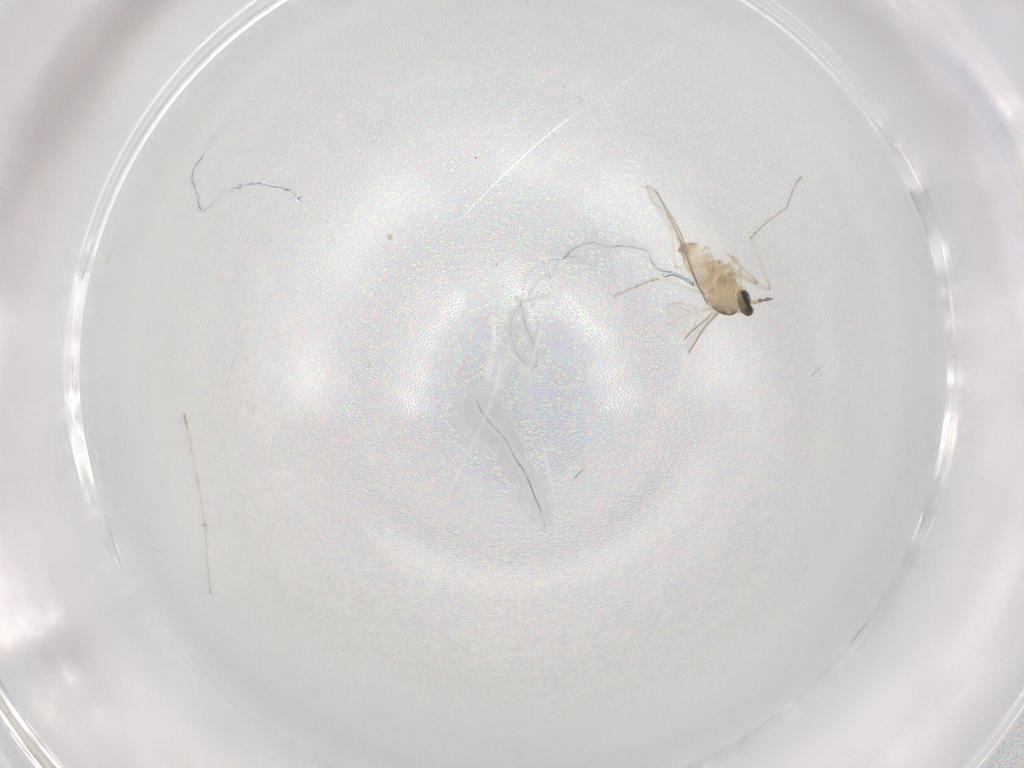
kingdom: Animalia
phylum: Arthropoda
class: Insecta
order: Diptera
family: Chironomidae
